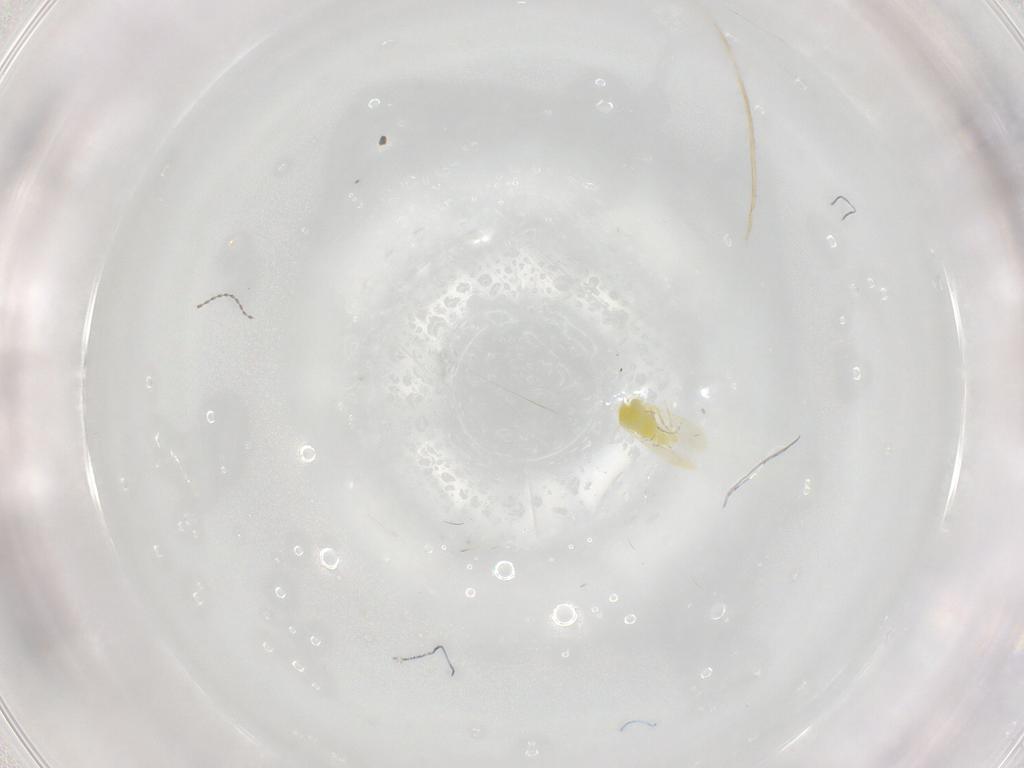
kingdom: Animalia
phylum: Arthropoda
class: Insecta
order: Hemiptera
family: Aleyrodidae
